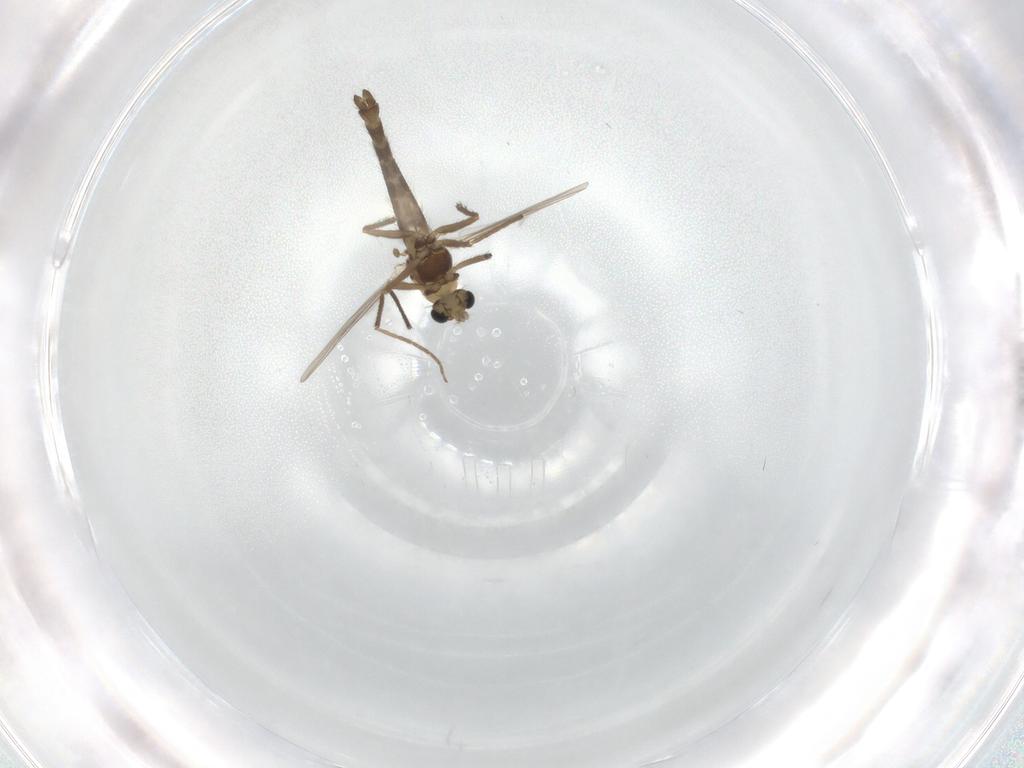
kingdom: Animalia
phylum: Arthropoda
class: Insecta
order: Diptera
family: Chironomidae
